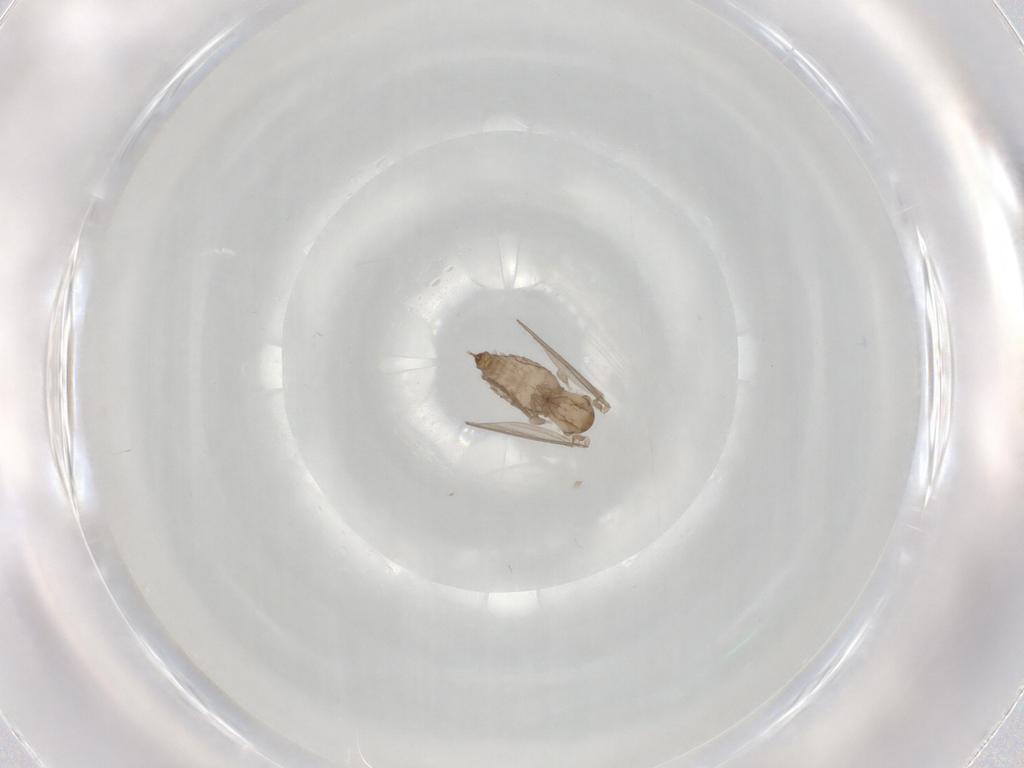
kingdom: Animalia
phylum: Arthropoda
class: Insecta
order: Diptera
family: Psychodidae
